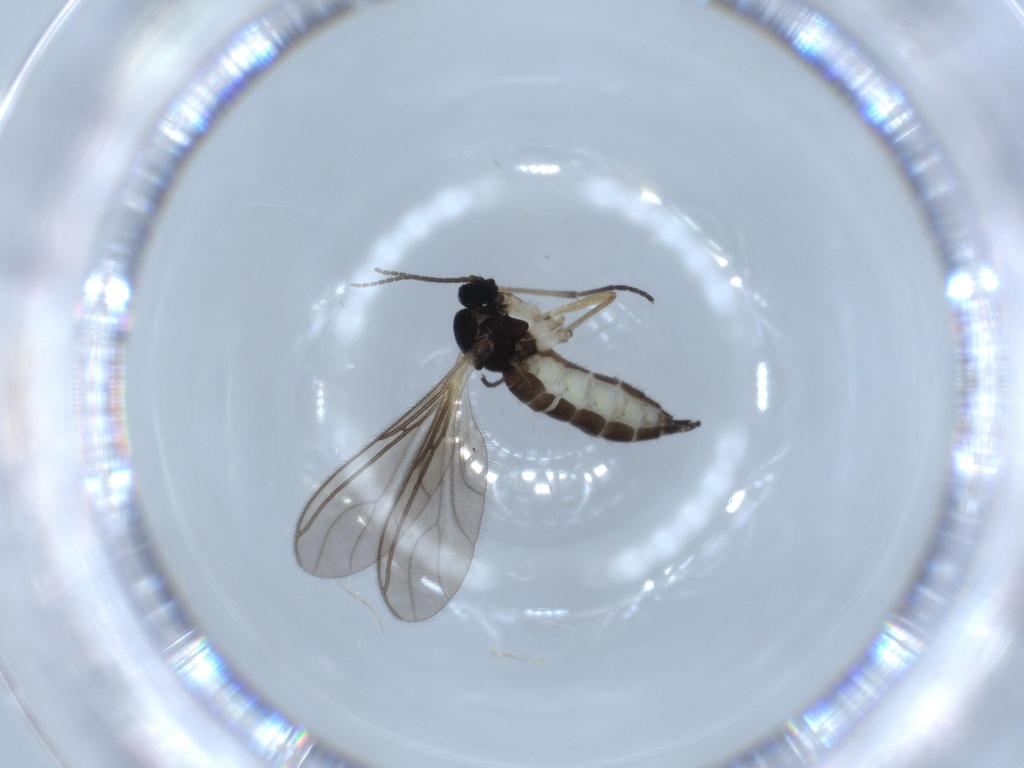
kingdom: Animalia
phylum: Arthropoda
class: Insecta
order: Diptera
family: Sciaridae
